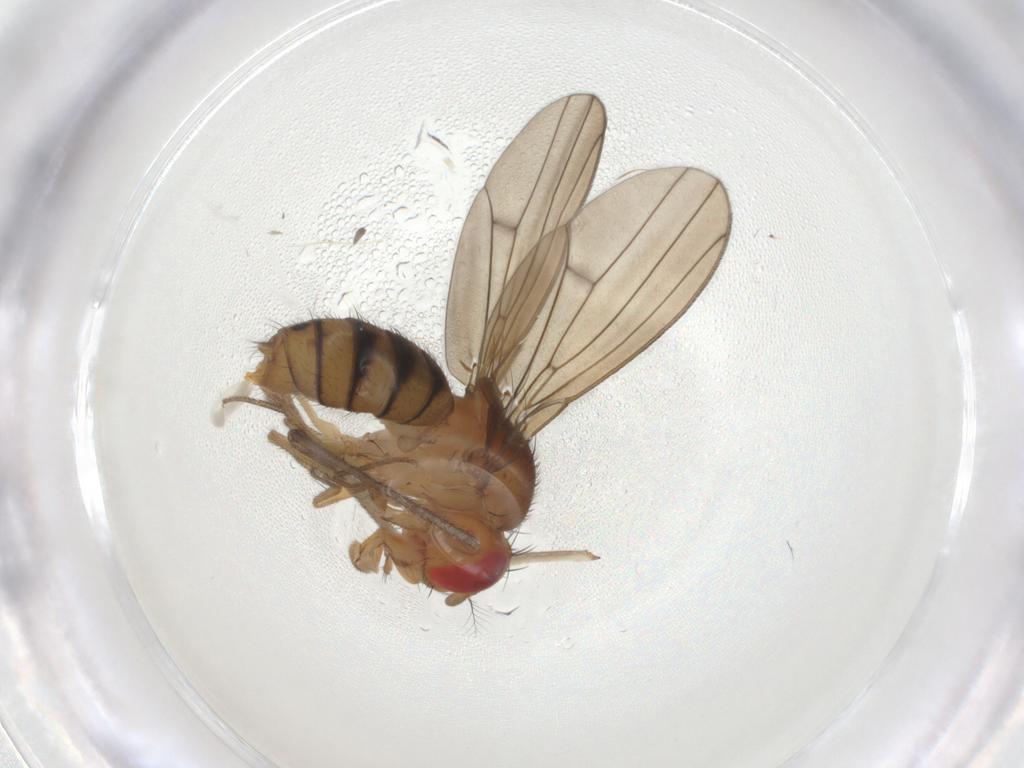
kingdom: Animalia
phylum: Arthropoda
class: Insecta
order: Diptera
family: Drosophilidae
